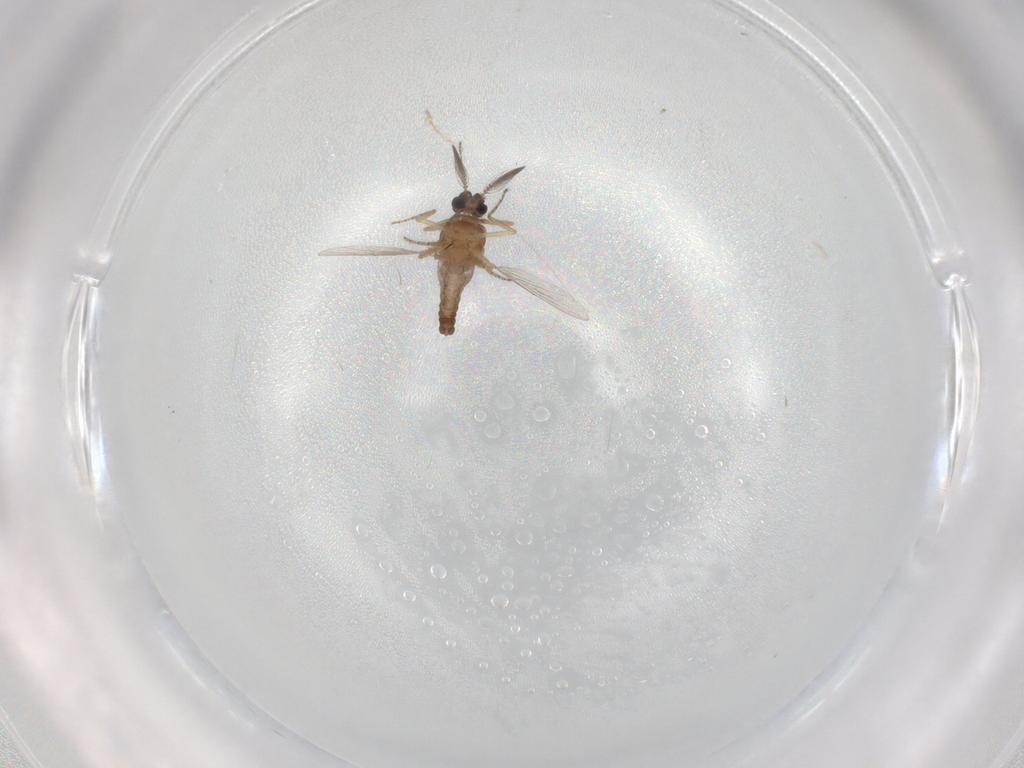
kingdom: Animalia
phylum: Arthropoda
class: Insecta
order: Diptera
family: Ceratopogonidae
